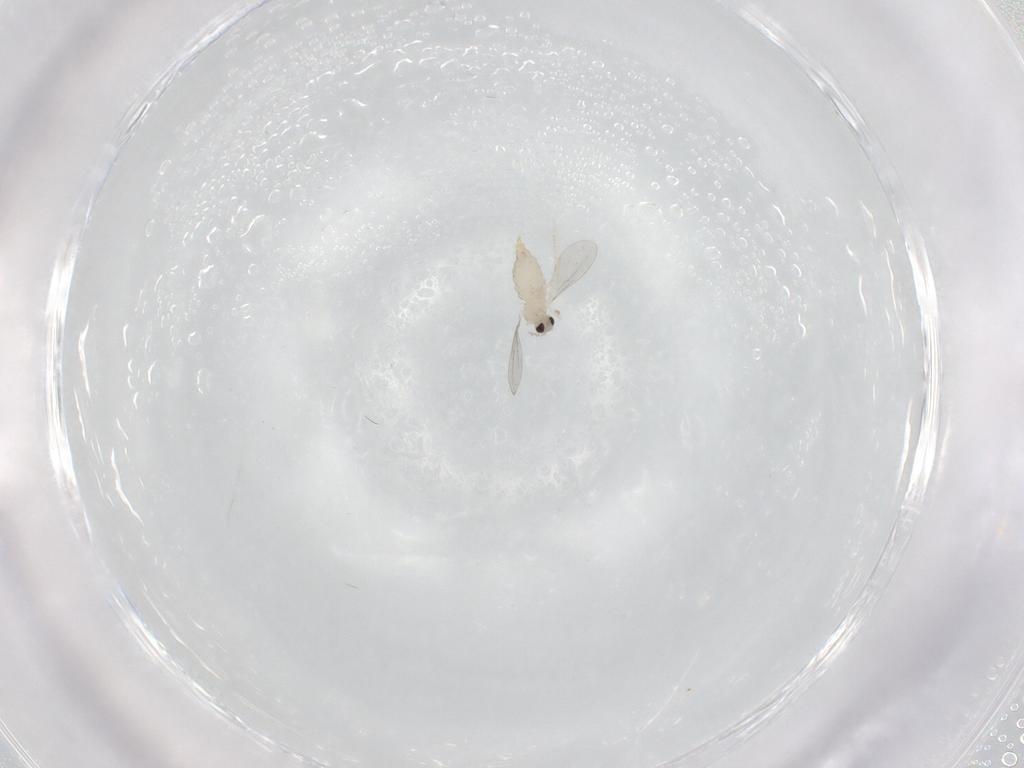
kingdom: Animalia
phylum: Arthropoda
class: Insecta
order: Diptera
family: Cecidomyiidae
